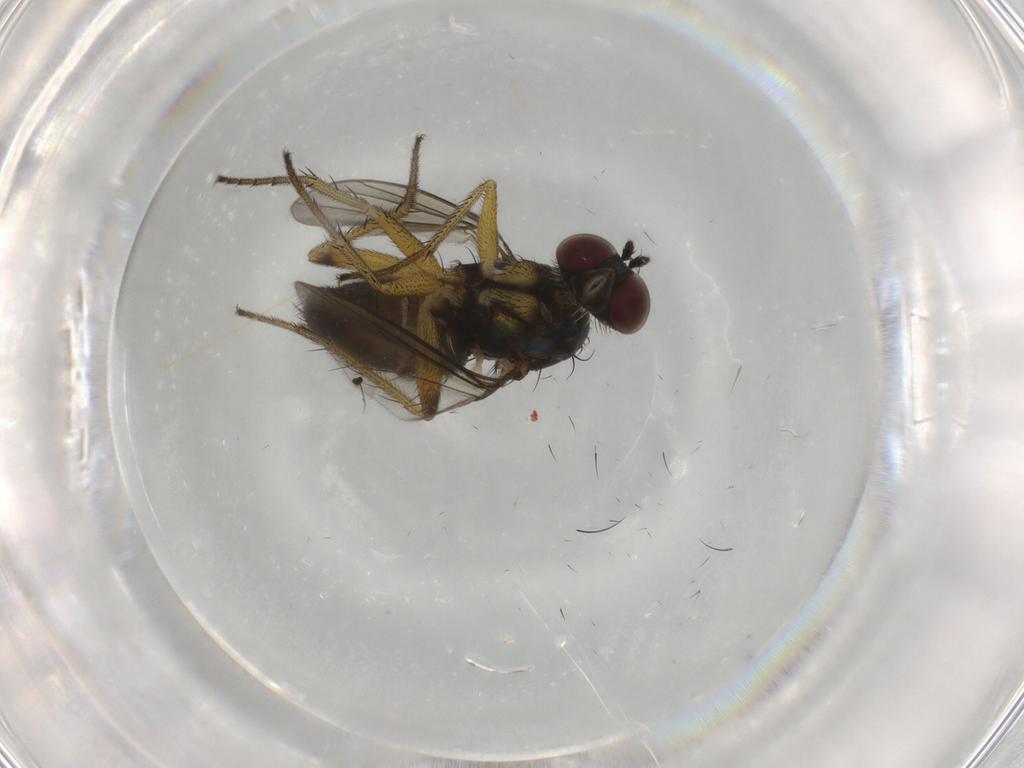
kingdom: Animalia
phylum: Arthropoda
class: Insecta
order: Diptera
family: Dolichopodidae
